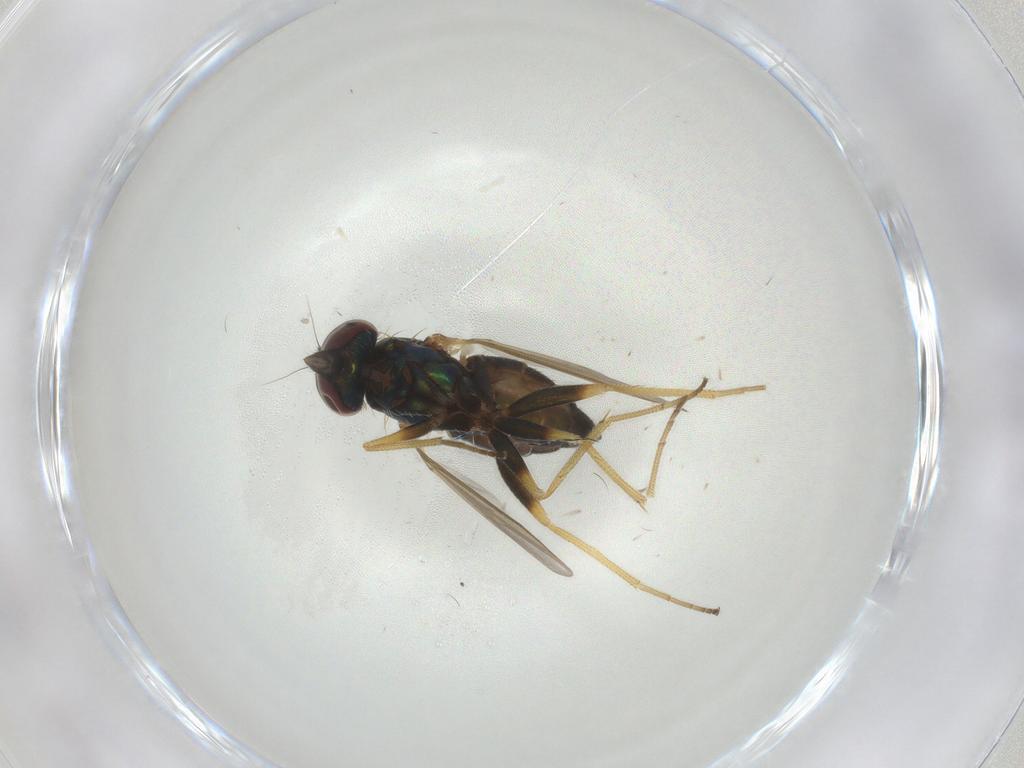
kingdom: Animalia
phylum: Arthropoda
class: Insecta
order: Diptera
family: Dolichopodidae
